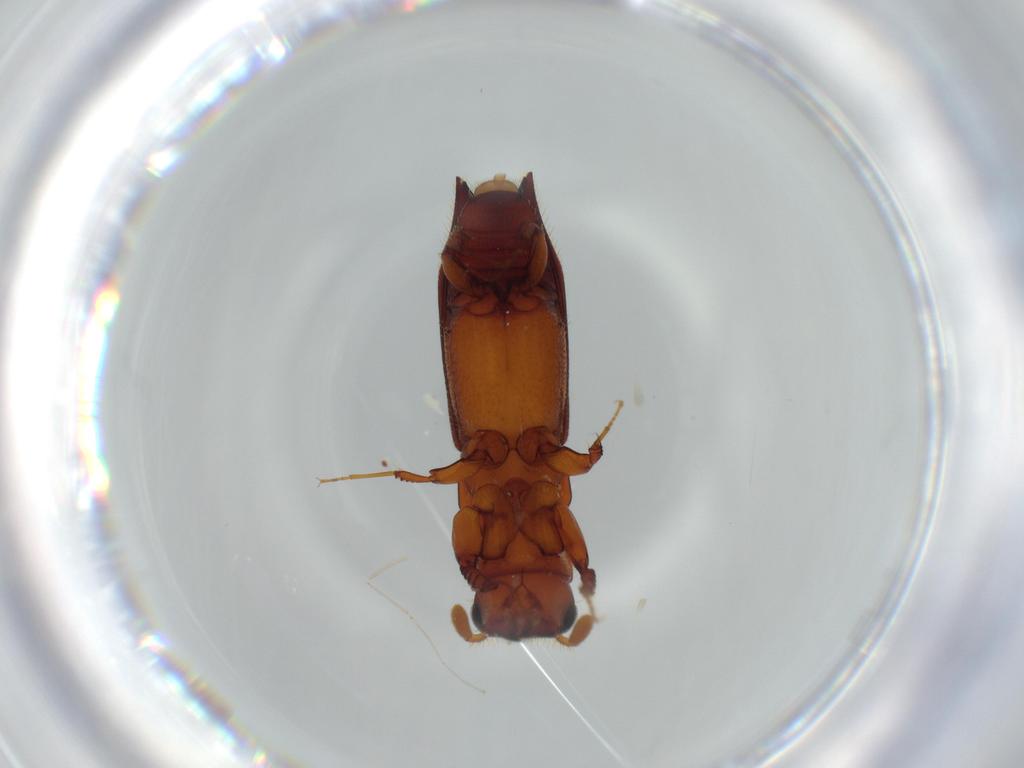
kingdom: Animalia
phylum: Arthropoda
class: Insecta
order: Coleoptera
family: Curculionidae
